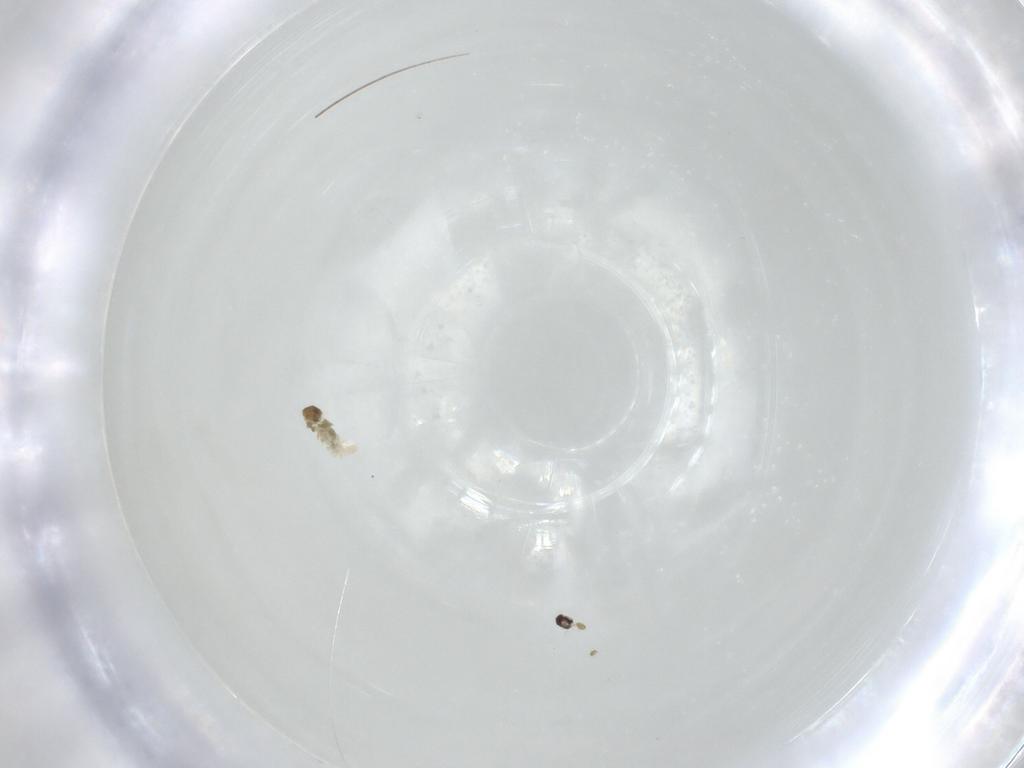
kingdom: Animalia
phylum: Arthropoda
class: Insecta
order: Diptera
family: Cecidomyiidae
